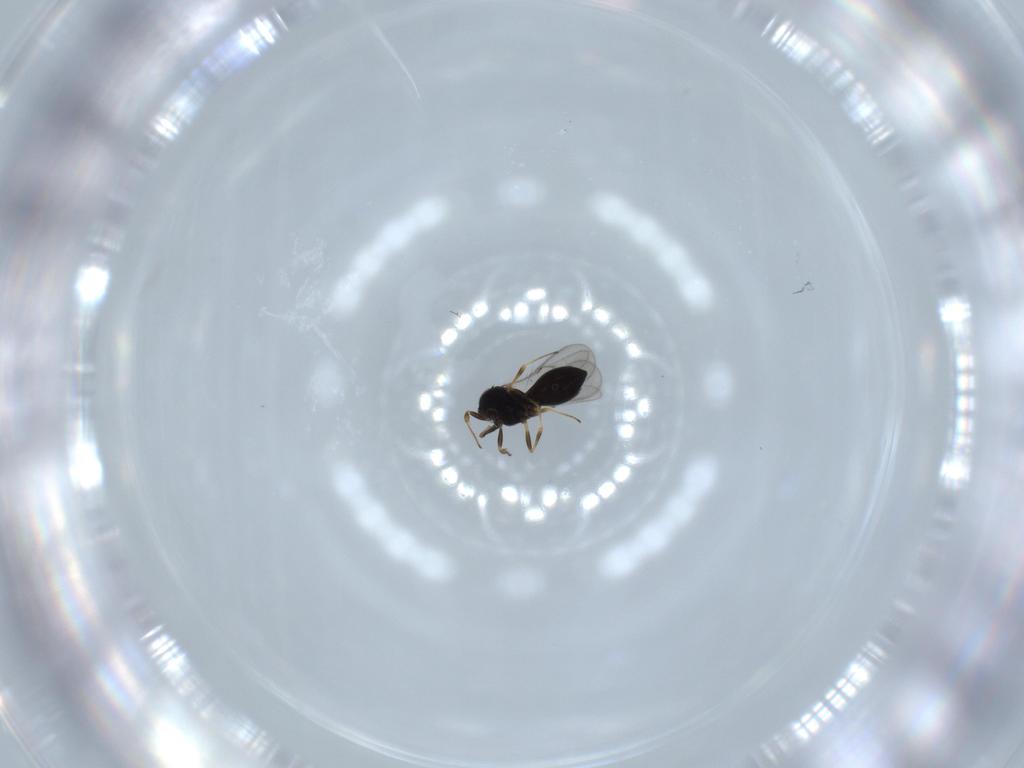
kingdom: Animalia
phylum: Arthropoda
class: Insecta
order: Hymenoptera
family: Scelionidae
